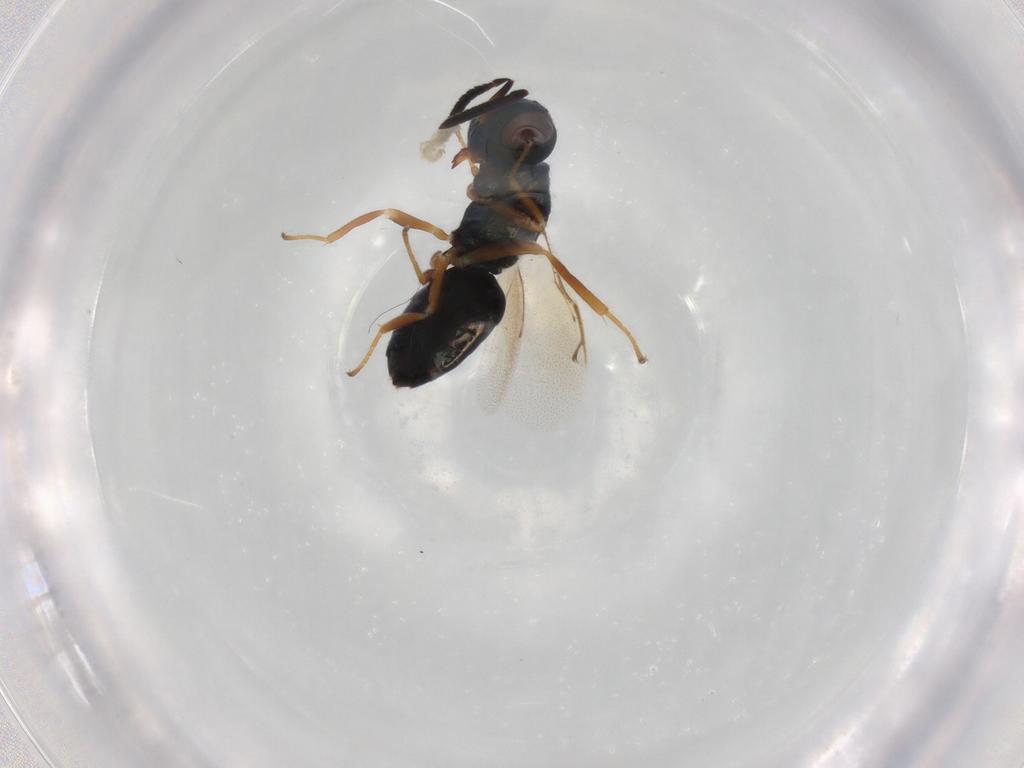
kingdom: Animalia
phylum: Arthropoda
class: Insecta
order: Hymenoptera
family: Pteromalidae
